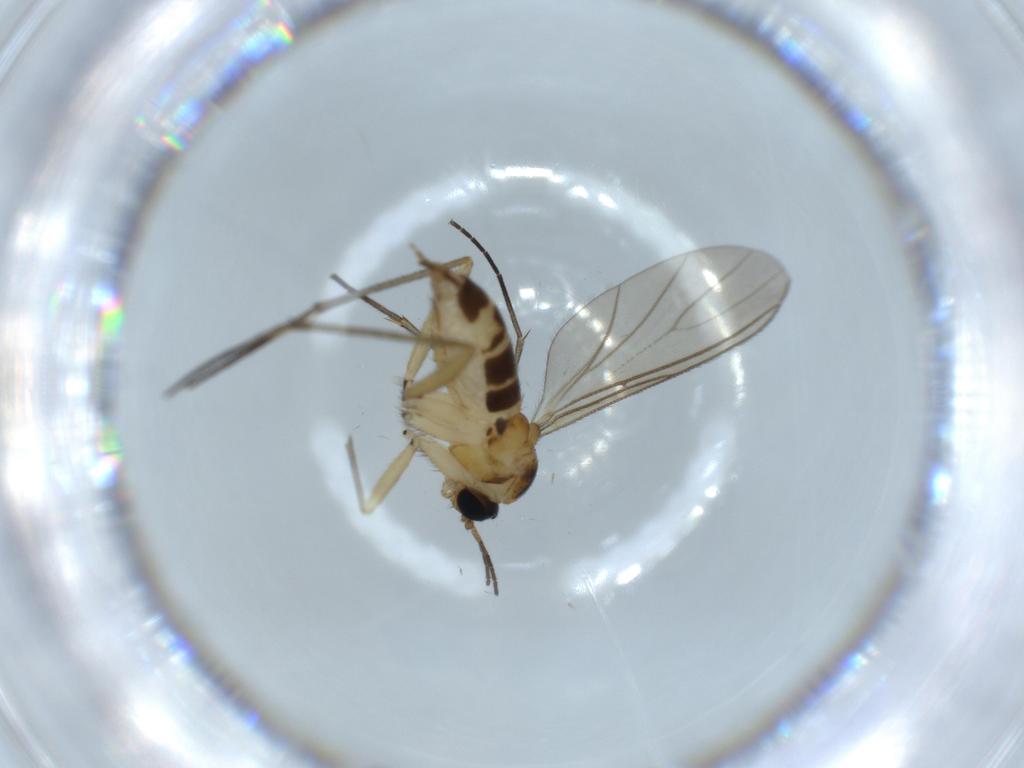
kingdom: Animalia
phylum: Arthropoda
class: Insecta
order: Diptera
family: Sciaridae
